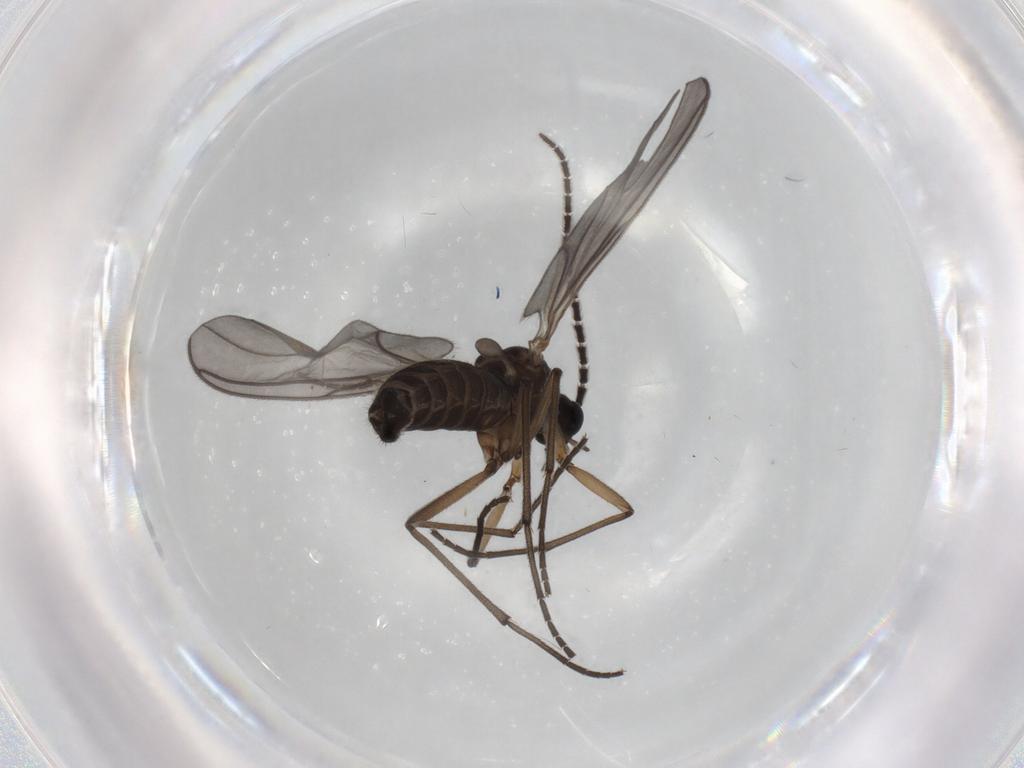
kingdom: Animalia
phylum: Arthropoda
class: Insecta
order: Diptera
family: Sciaridae
